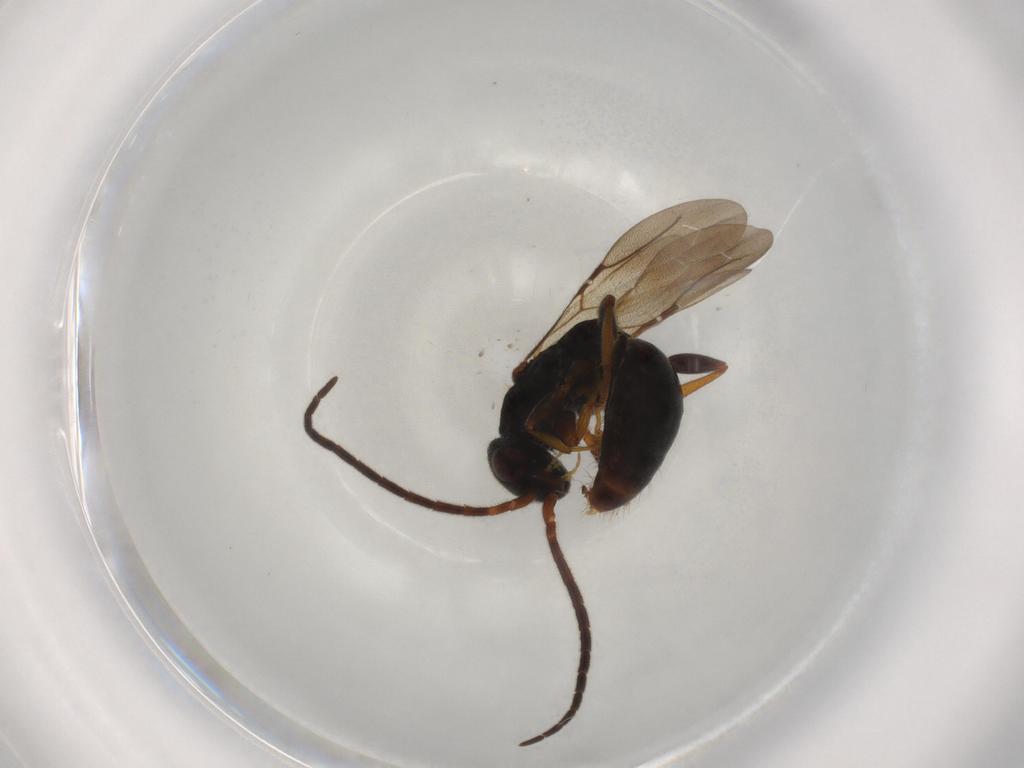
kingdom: Animalia
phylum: Arthropoda
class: Insecta
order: Hymenoptera
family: Bethylidae
